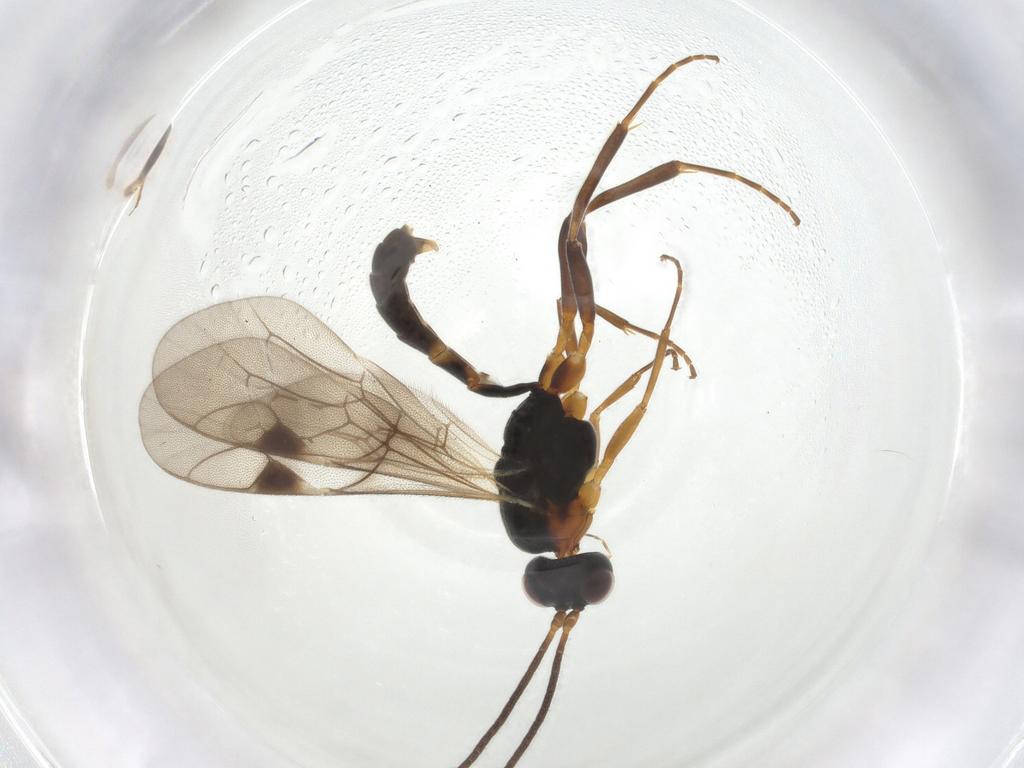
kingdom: Animalia
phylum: Arthropoda
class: Insecta
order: Hymenoptera
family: Ichneumonidae
